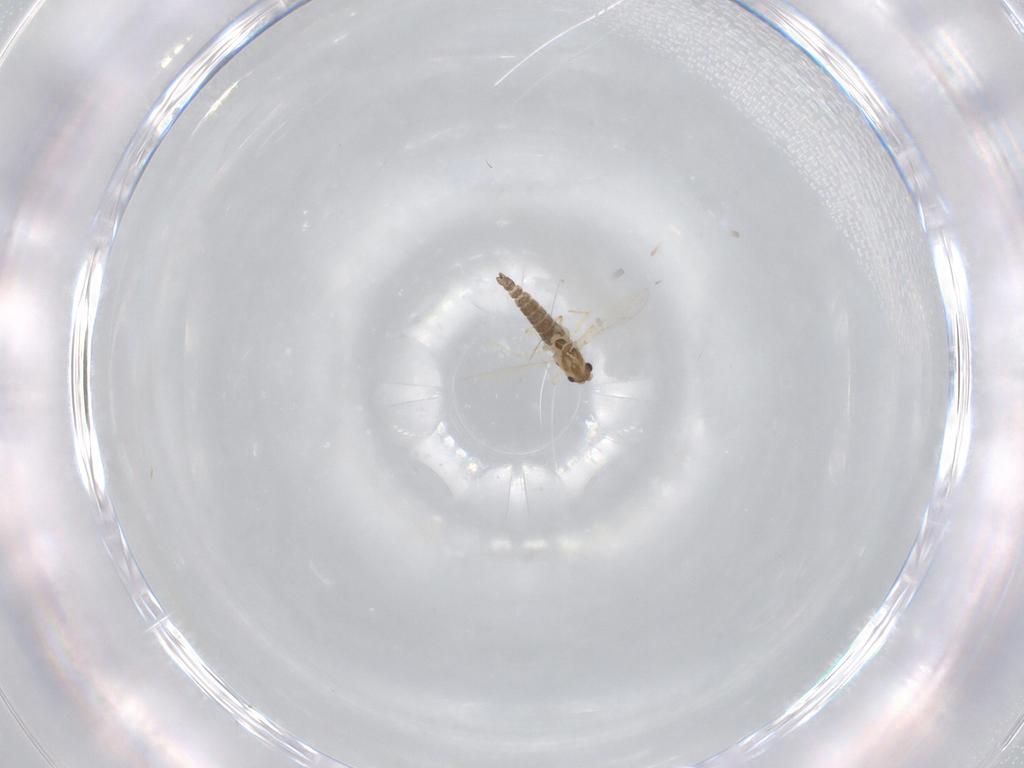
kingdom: Animalia
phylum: Arthropoda
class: Insecta
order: Diptera
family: Chironomidae
